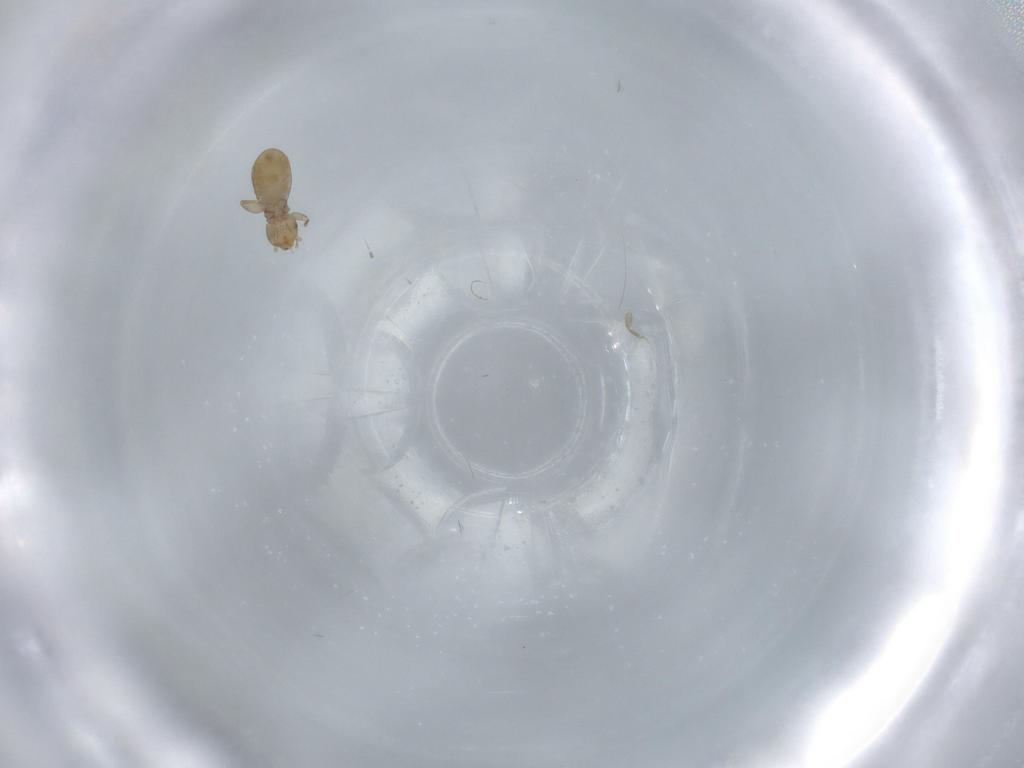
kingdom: Animalia
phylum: Arthropoda
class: Insecta
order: Psocodea
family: Liposcelididae
